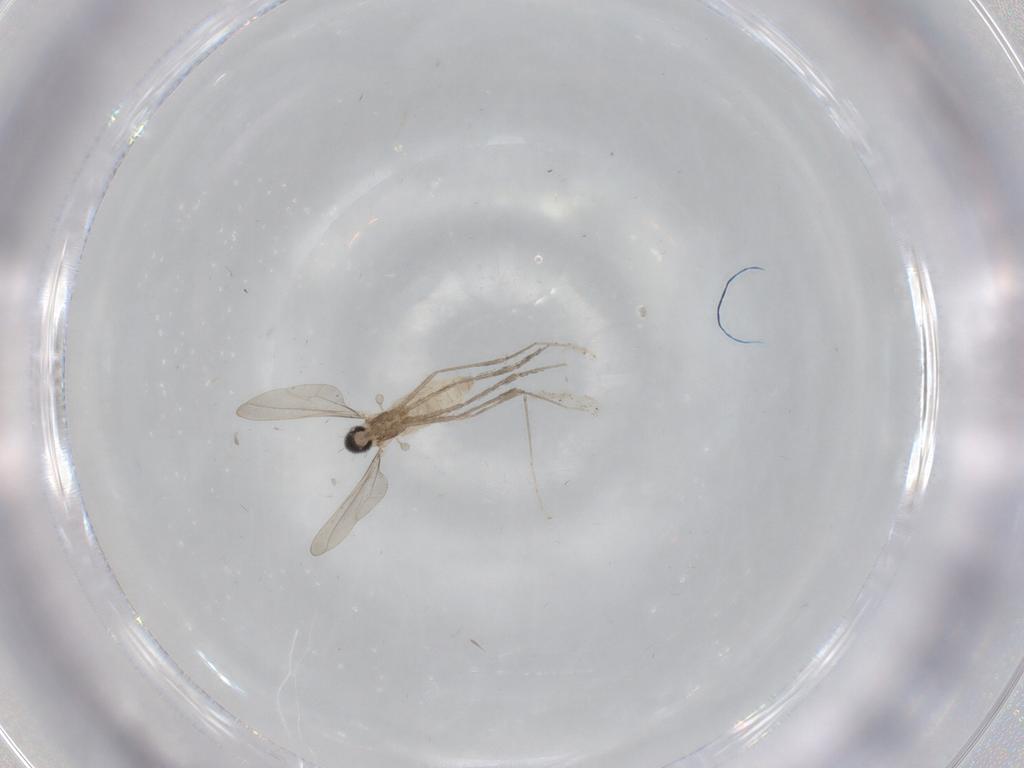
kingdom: Animalia
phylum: Arthropoda
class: Insecta
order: Diptera
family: Cecidomyiidae
